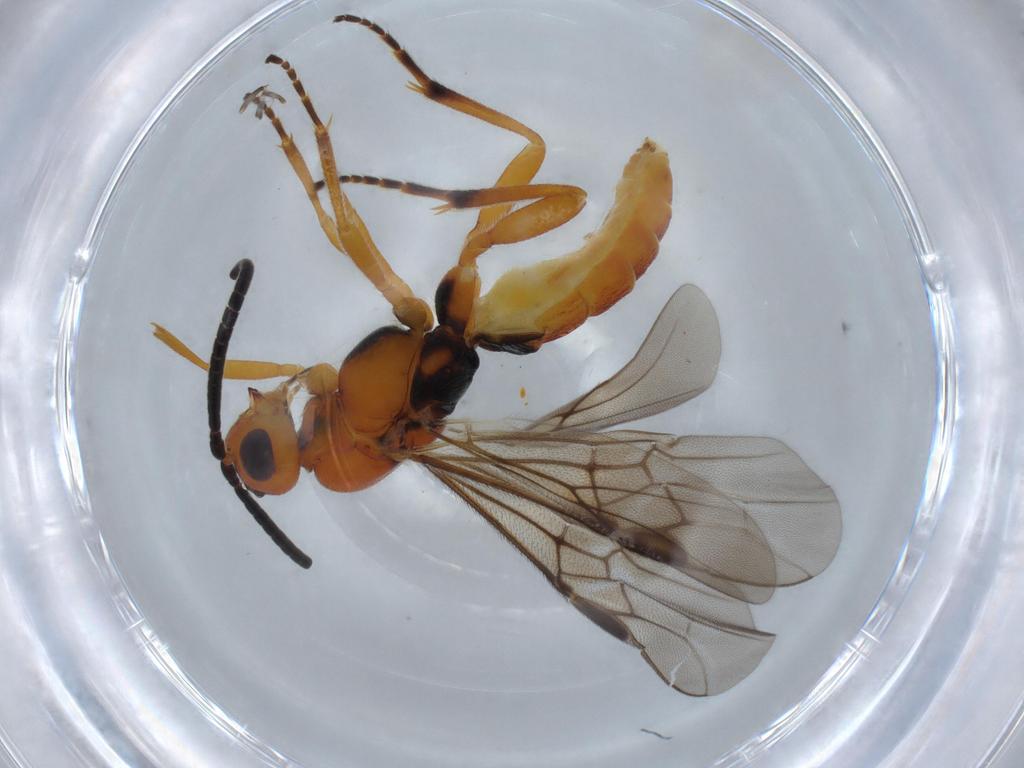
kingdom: Animalia
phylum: Arthropoda
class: Insecta
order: Hymenoptera
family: Braconidae
